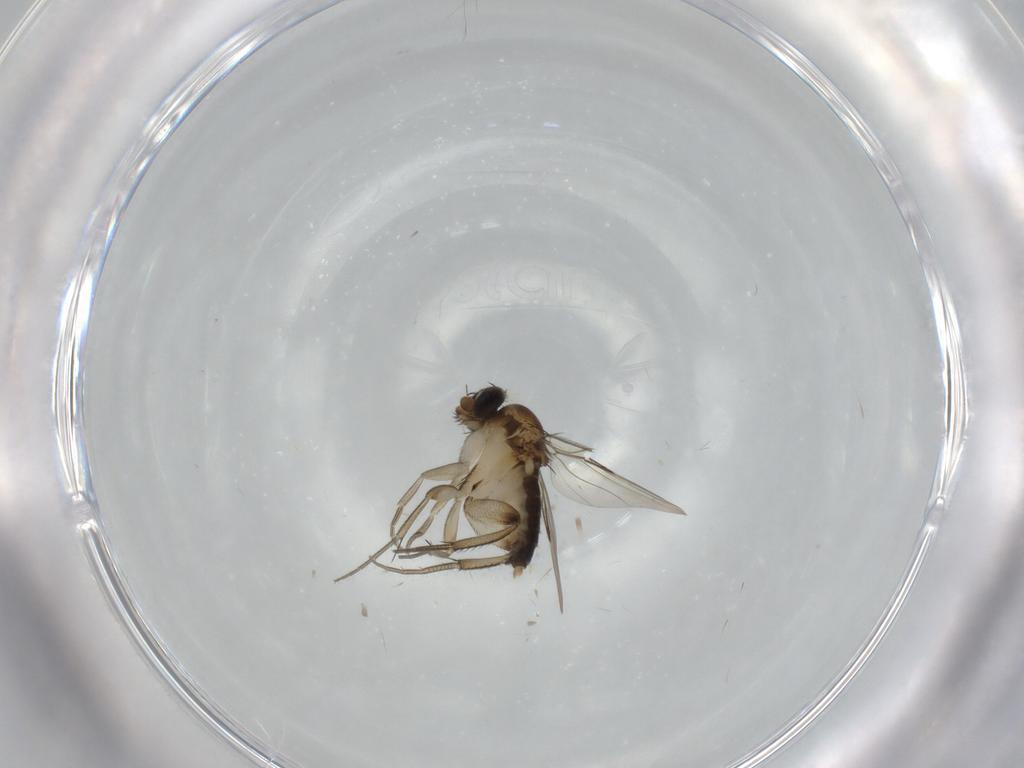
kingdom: Animalia
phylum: Arthropoda
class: Insecta
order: Diptera
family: Phoridae
